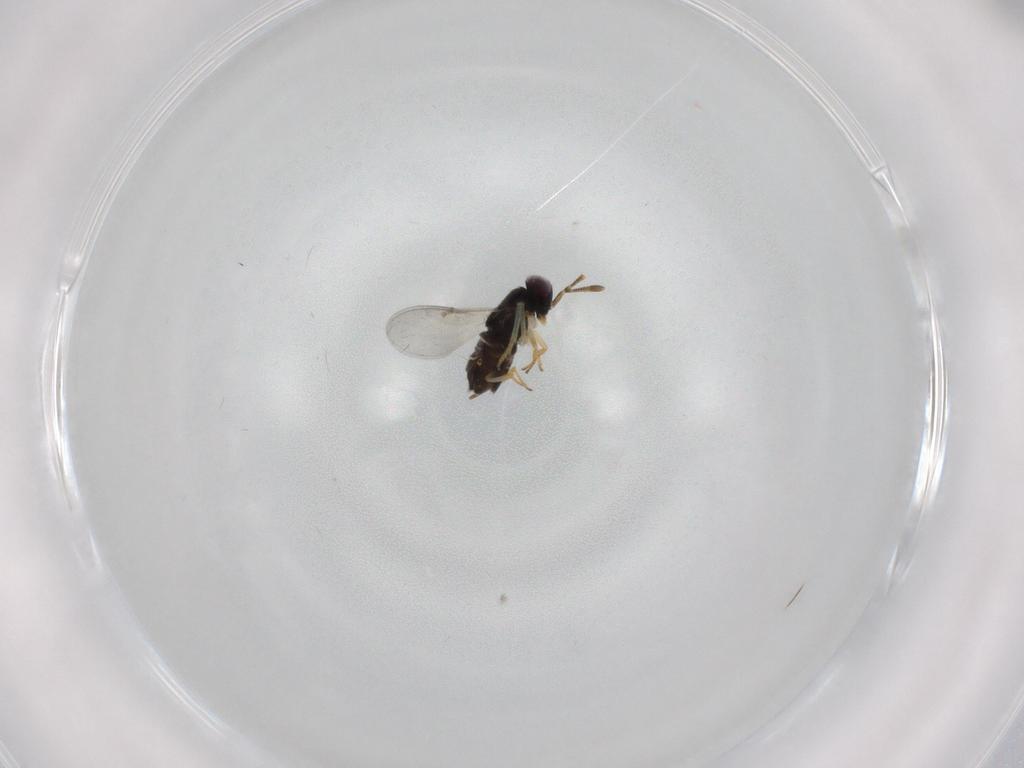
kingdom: Animalia
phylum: Arthropoda
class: Insecta
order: Hymenoptera
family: Encyrtidae
